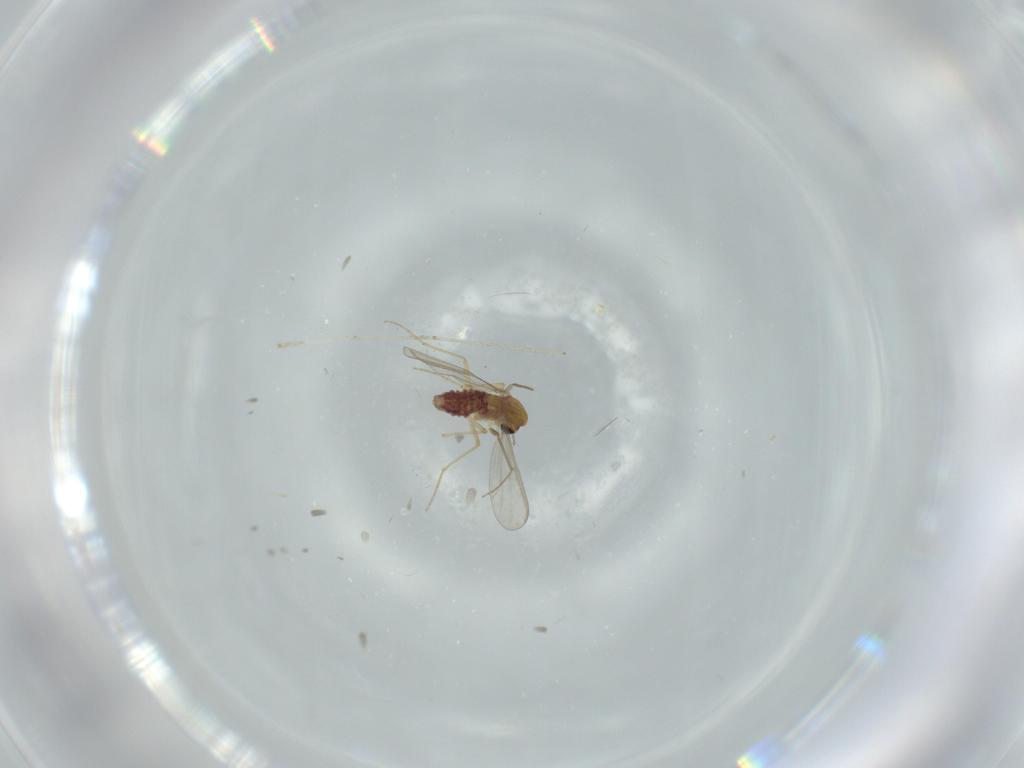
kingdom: Animalia
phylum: Arthropoda
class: Insecta
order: Diptera
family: Chironomidae
